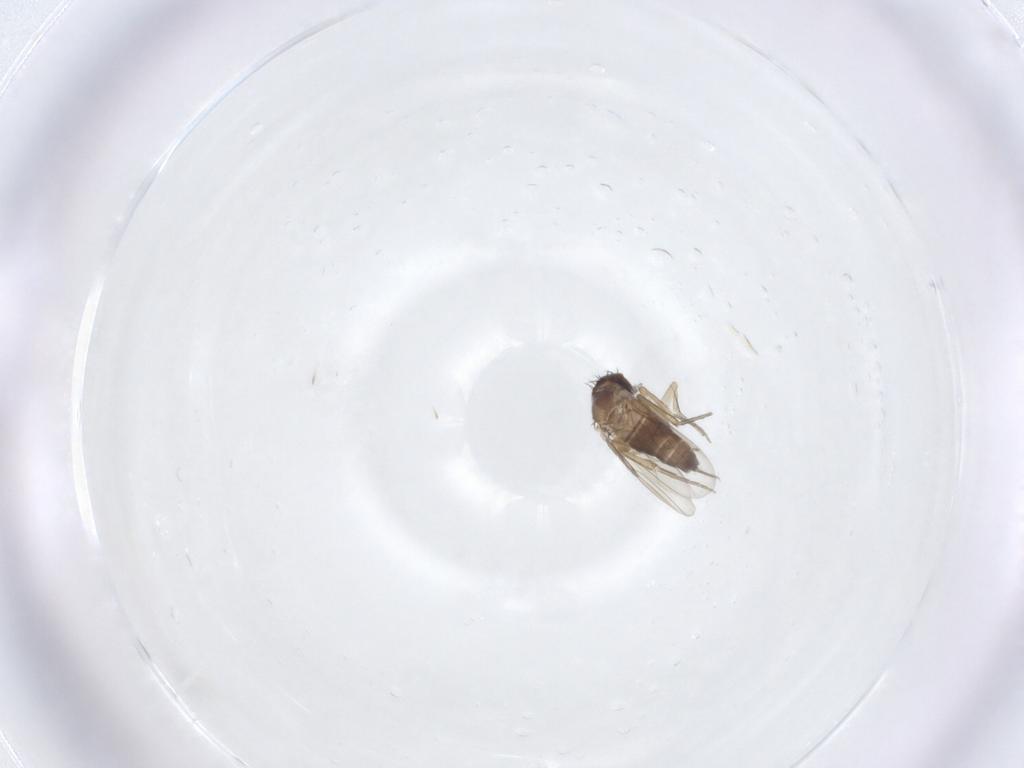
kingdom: Animalia
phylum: Arthropoda
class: Insecta
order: Diptera
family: Phoridae
